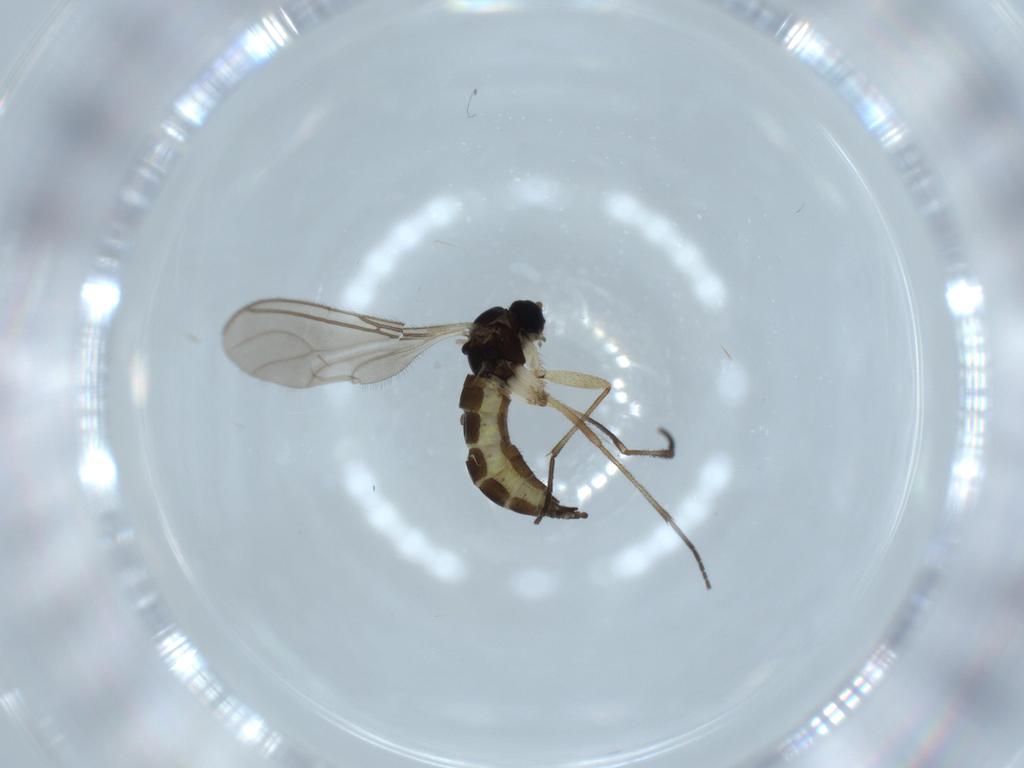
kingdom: Animalia
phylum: Arthropoda
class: Insecta
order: Diptera
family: Psychodidae
